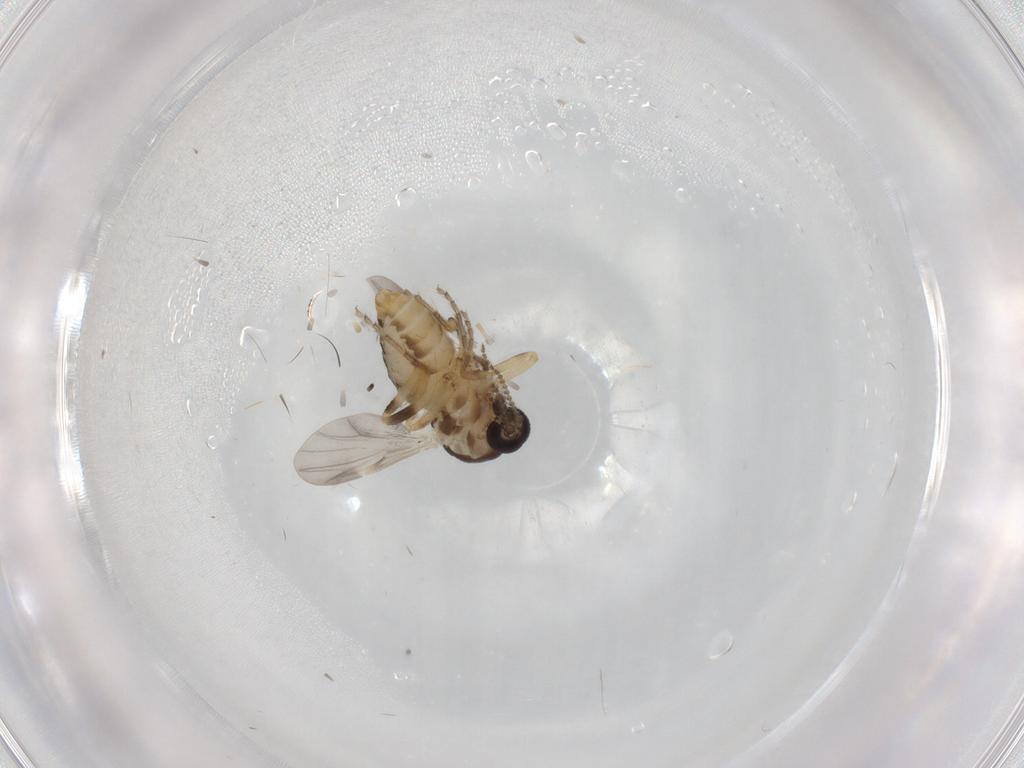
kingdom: Animalia
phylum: Arthropoda
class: Insecta
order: Diptera
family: Ceratopogonidae
